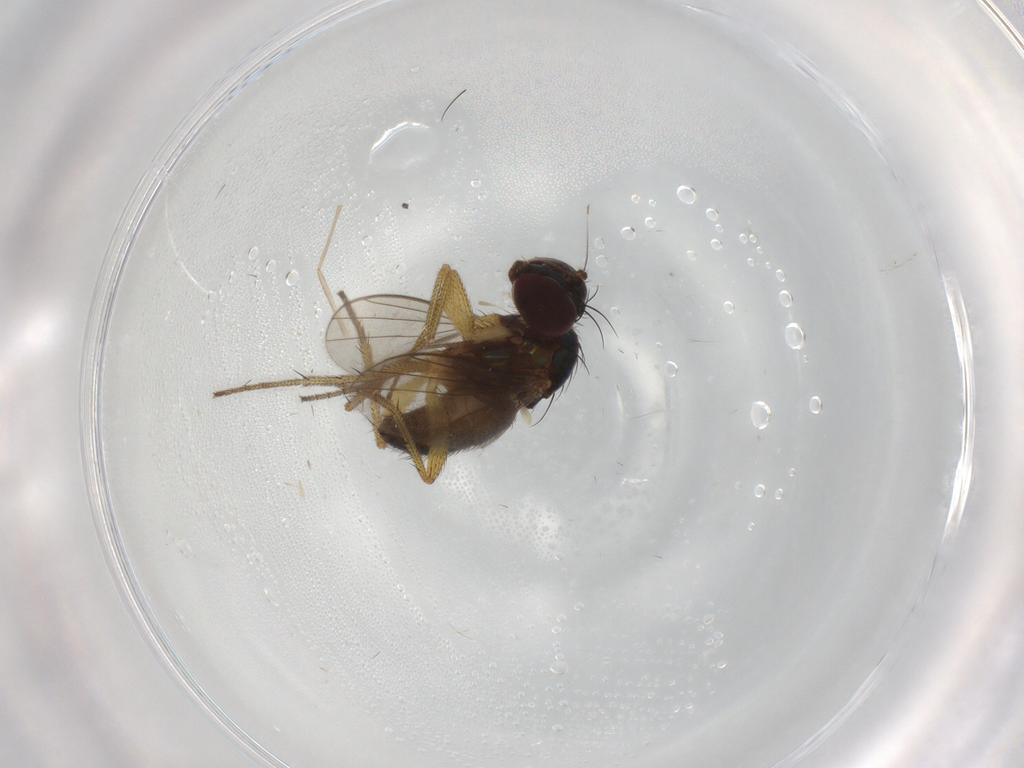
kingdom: Animalia
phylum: Arthropoda
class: Insecta
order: Diptera
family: Chironomidae
